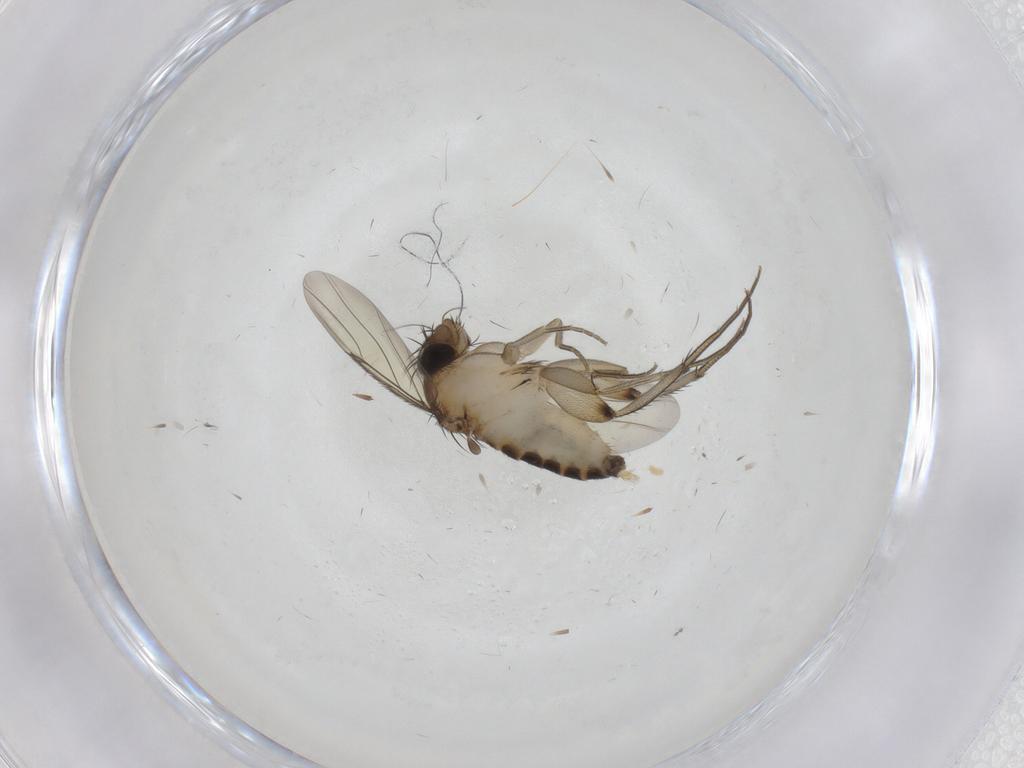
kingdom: Animalia
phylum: Arthropoda
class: Insecta
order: Diptera
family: Phoridae
